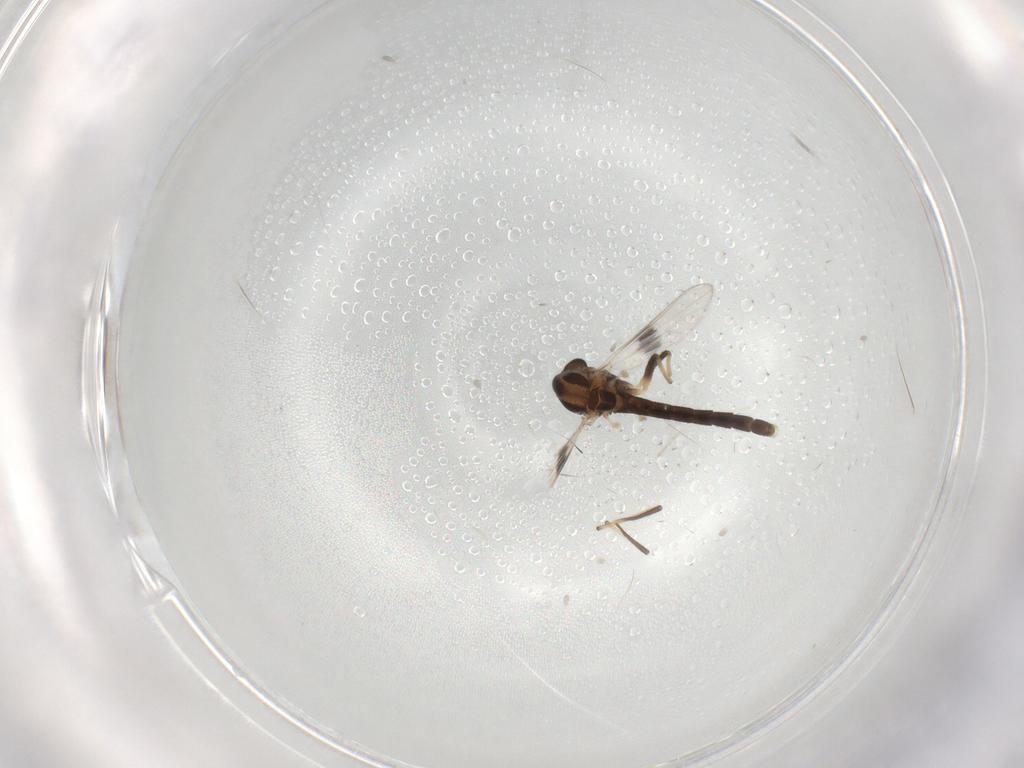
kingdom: Animalia
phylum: Arthropoda
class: Insecta
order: Diptera
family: Chironomidae
